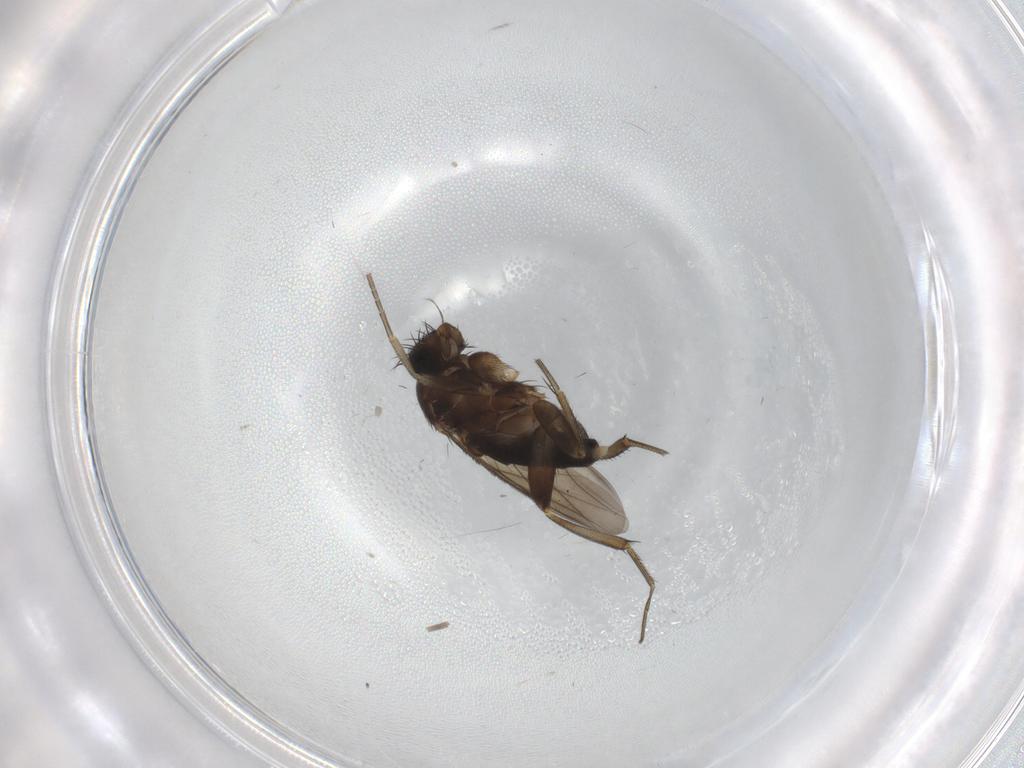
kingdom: Animalia
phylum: Arthropoda
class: Insecta
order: Diptera
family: Phoridae
